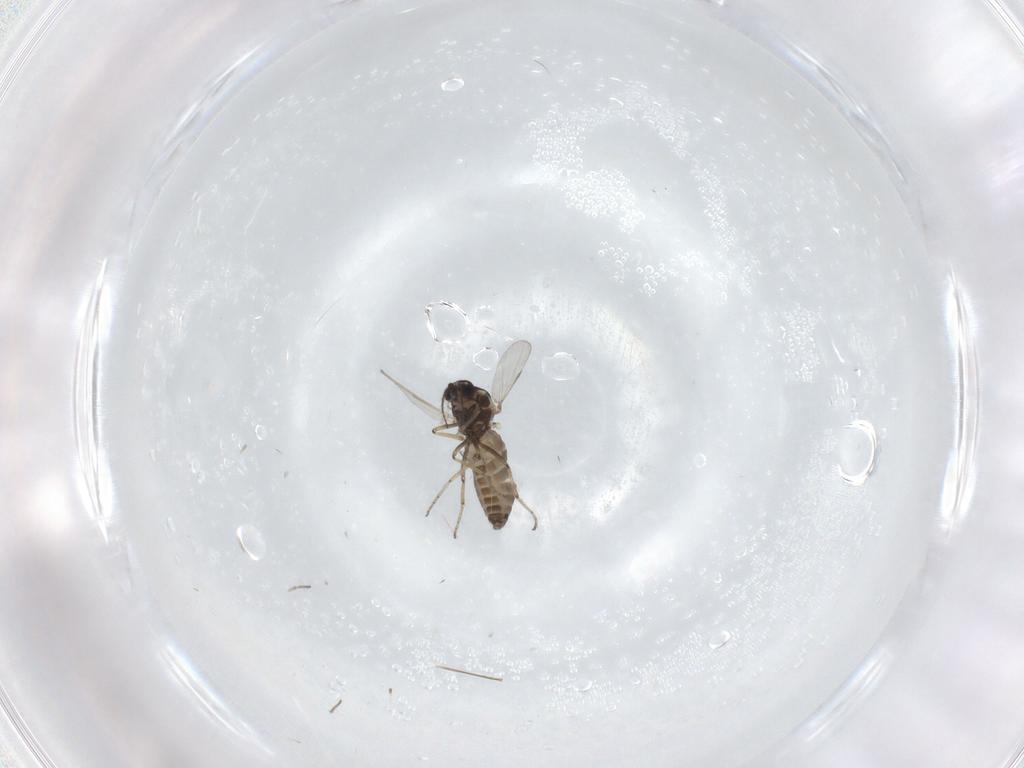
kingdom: Animalia
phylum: Arthropoda
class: Insecta
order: Diptera
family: Ceratopogonidae
